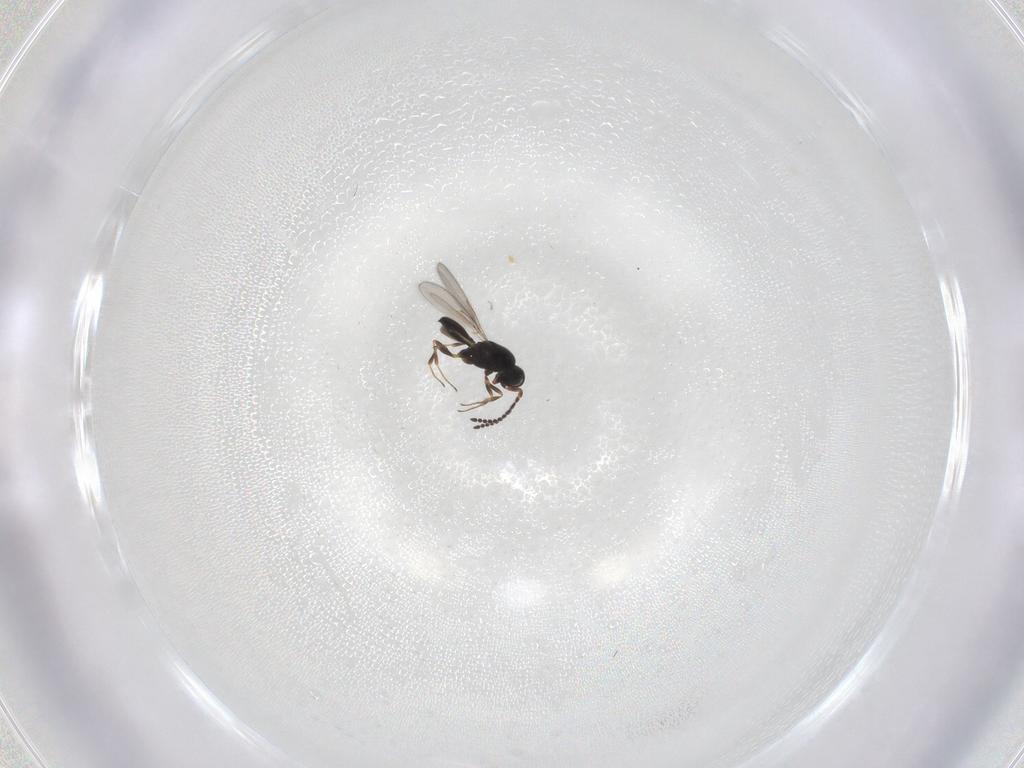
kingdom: Animalia
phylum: Arthropoda
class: Insecta
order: Hymenoptera
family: Scelionidae
